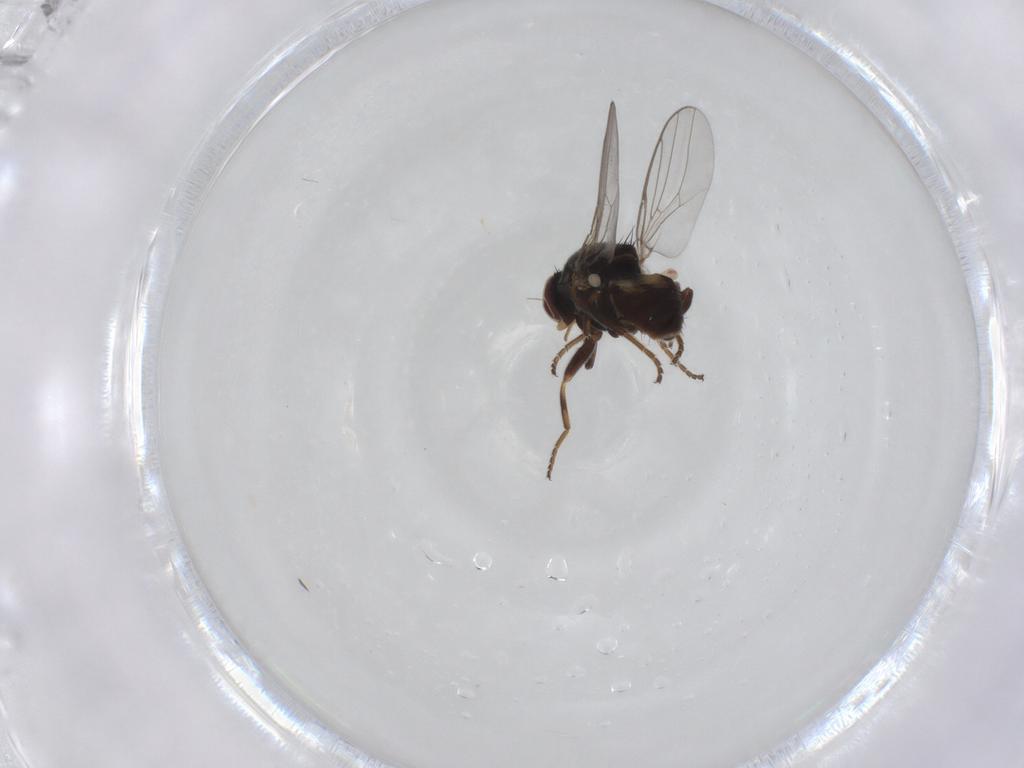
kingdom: Animalia
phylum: Arthropoda
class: Insecta
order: Diptera
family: Chloropidae
